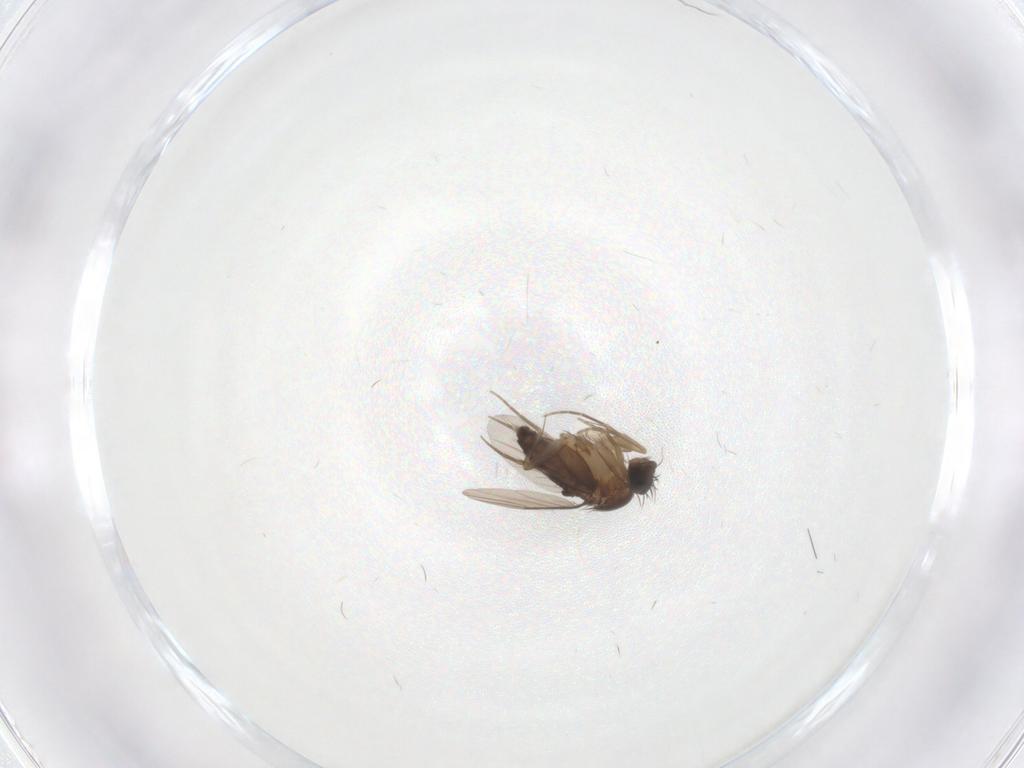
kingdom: Animalia
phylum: Arthropoda
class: Insecta
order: Diptera
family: Phoridae
